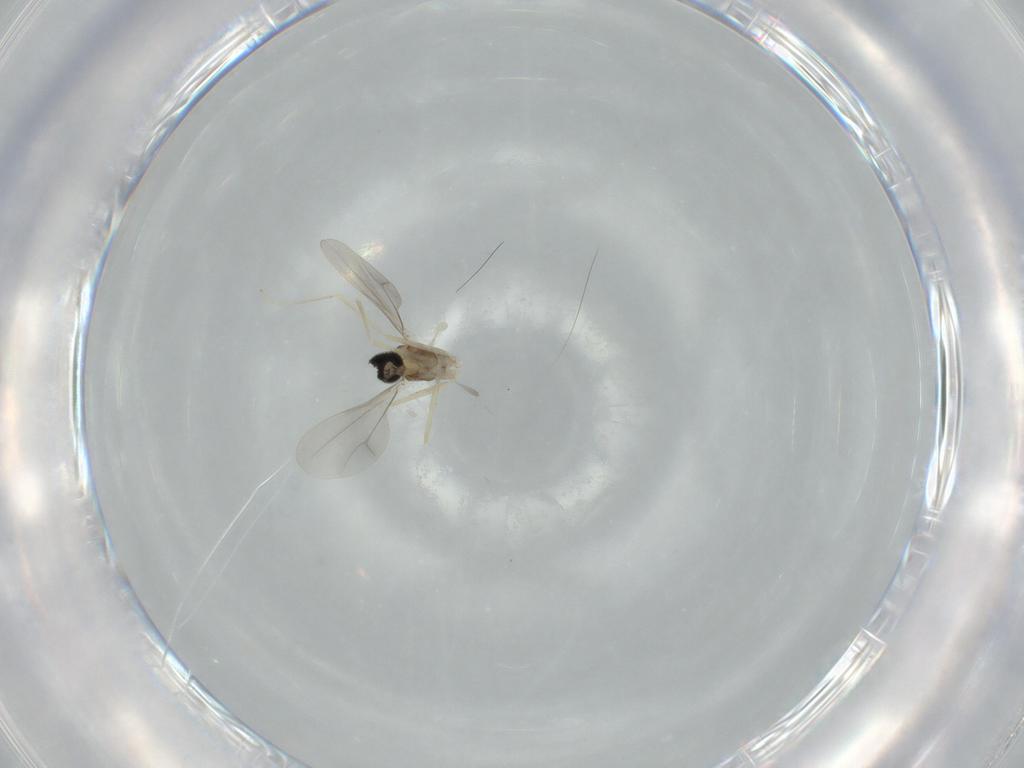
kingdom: Animalia
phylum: Arthropoda
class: Insecta
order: Diptera
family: Cecidomyiidae
